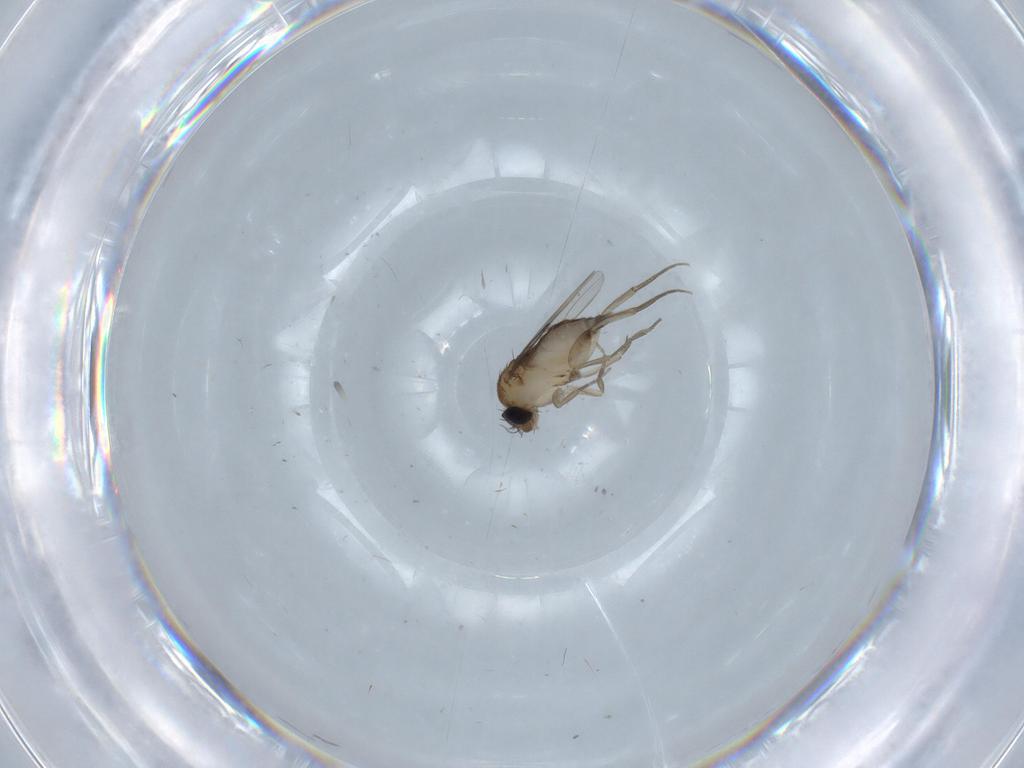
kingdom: Animalia
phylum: Arthropoda
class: Insecta
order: Diptera
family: Phoridae
